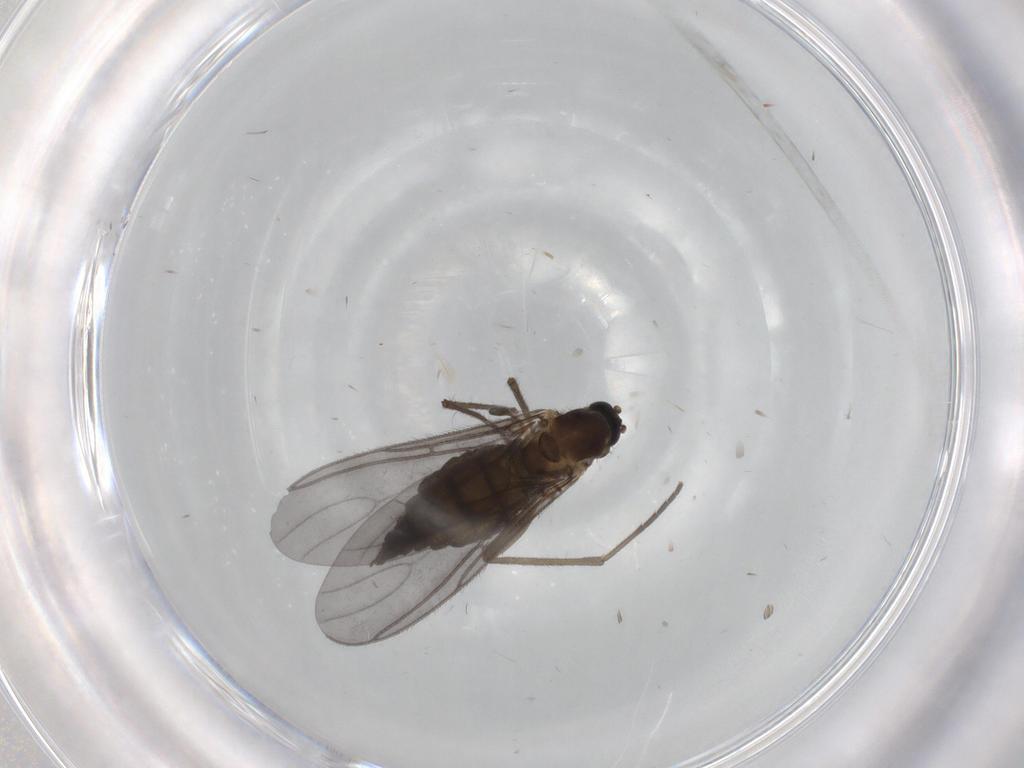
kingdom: Animalia
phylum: Arthropoda
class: Insecta
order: Diptera
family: Sciaridae
